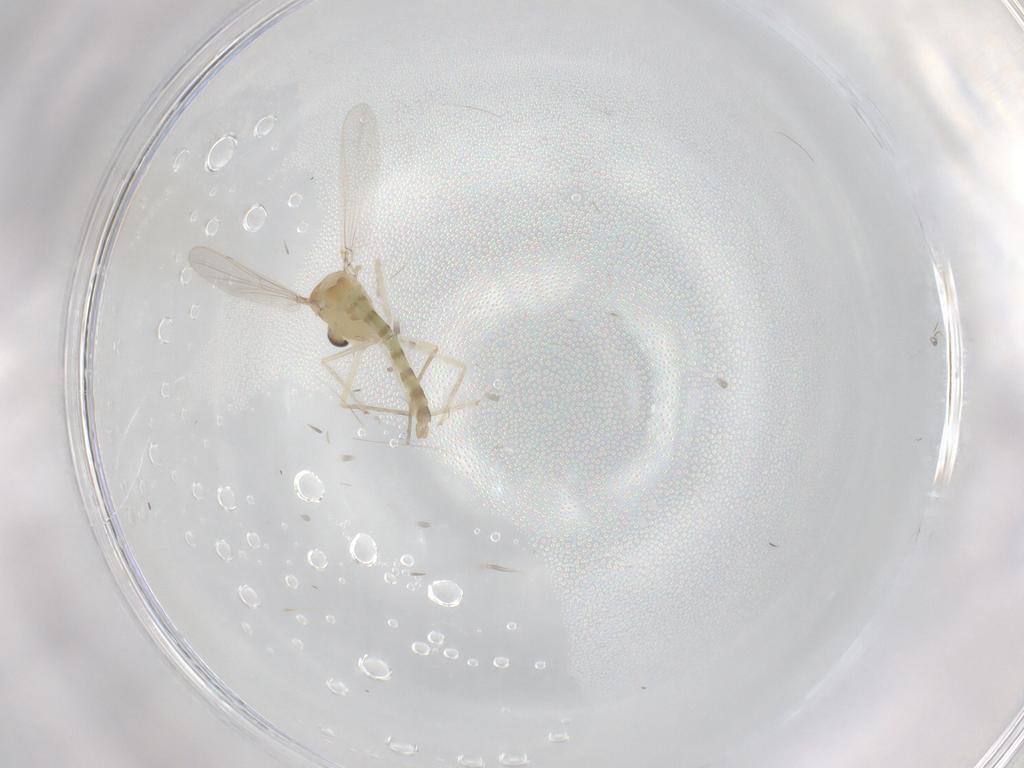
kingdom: Animalia
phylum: Arthropoda
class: Insecta
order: Diptera
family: Chironomidae
